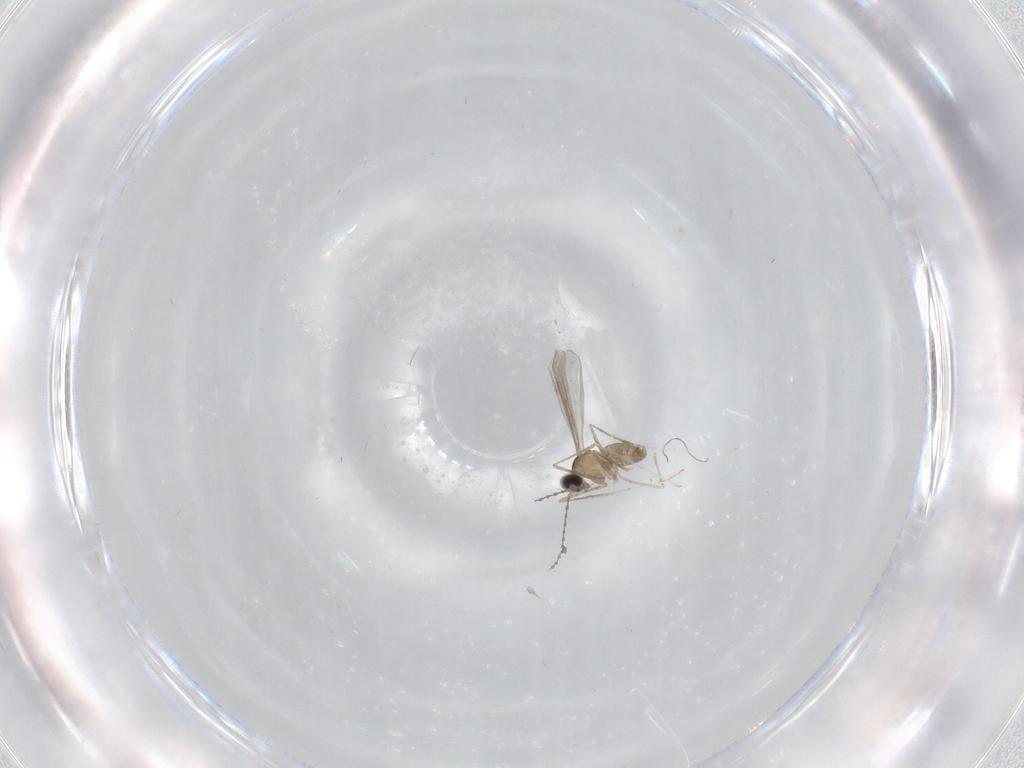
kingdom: Animalia
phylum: Arthropoda
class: Insecta
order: Diptera
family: Cecidomyiidae
